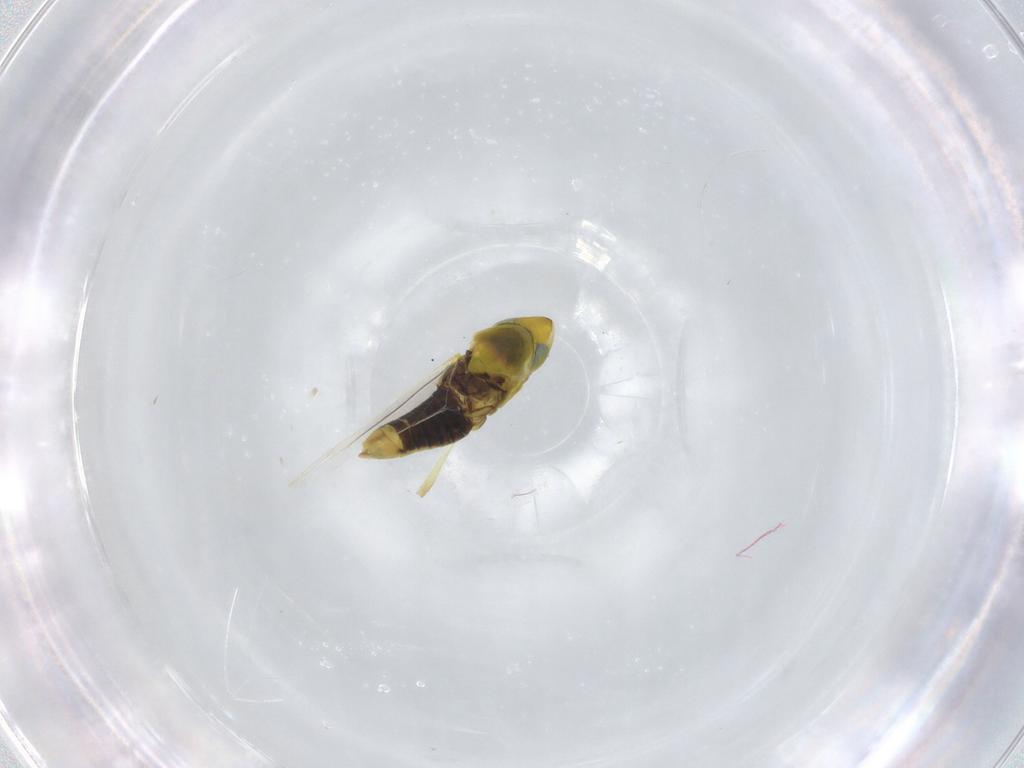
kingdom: Animalia
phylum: Arthropoda
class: Insecta
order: Hemiptera
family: Cicadellidae
